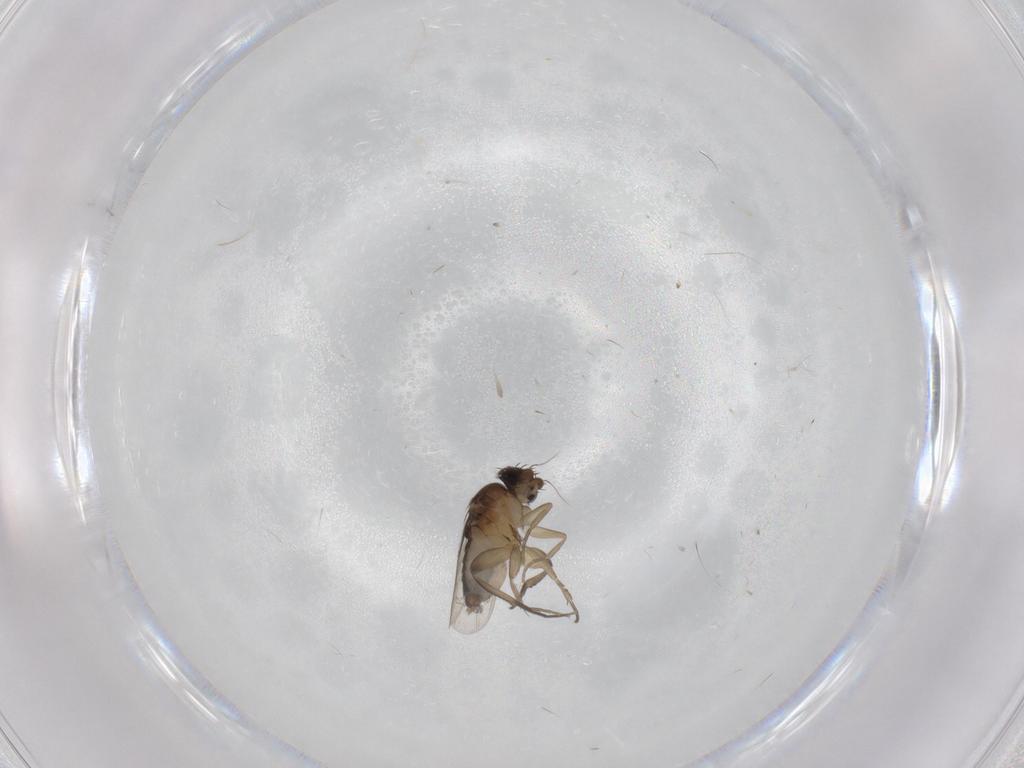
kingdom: Animalia
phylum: Arthropoda
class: Insecta
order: Diptera
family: Phoridae
